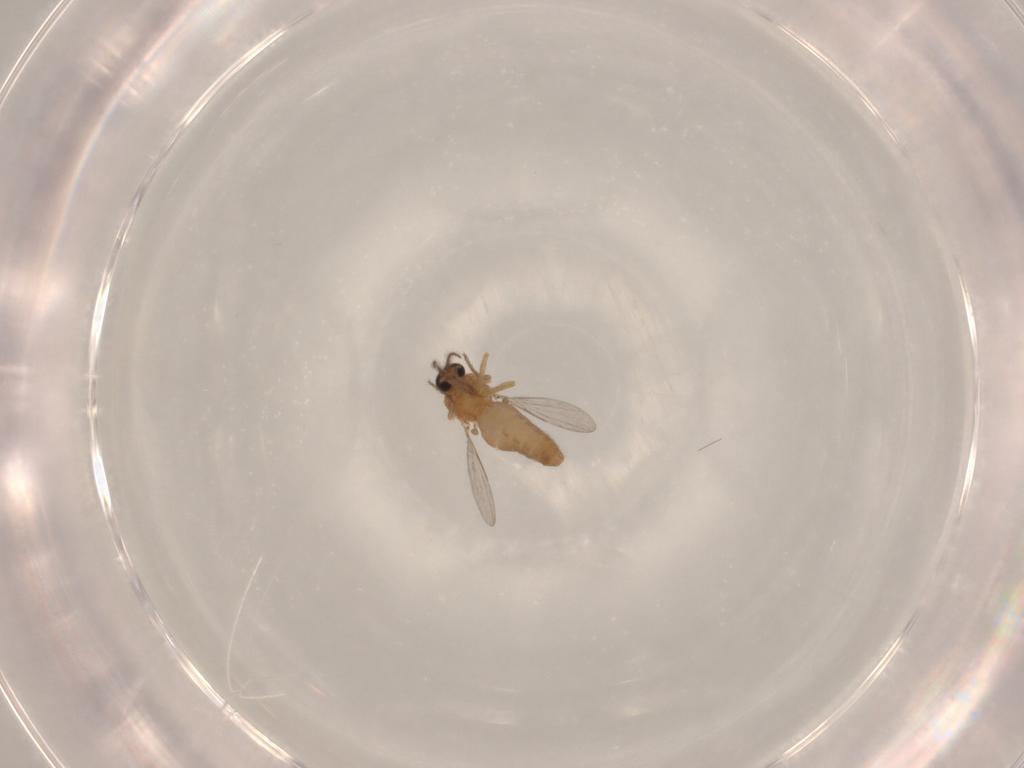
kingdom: Animalia
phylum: Arthropoda
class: Insecta
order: Diptera
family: Ceratopogonidae
